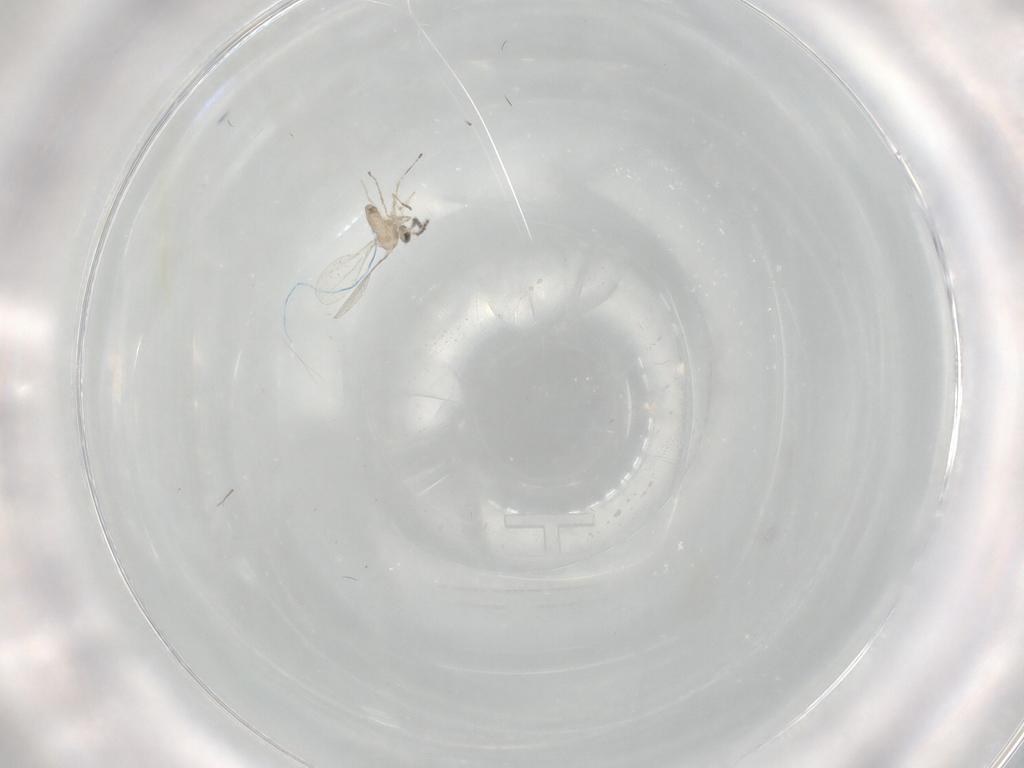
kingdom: Animalia
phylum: Arthropoda
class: Insecta
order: Diptera
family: Cecidomyiidae
